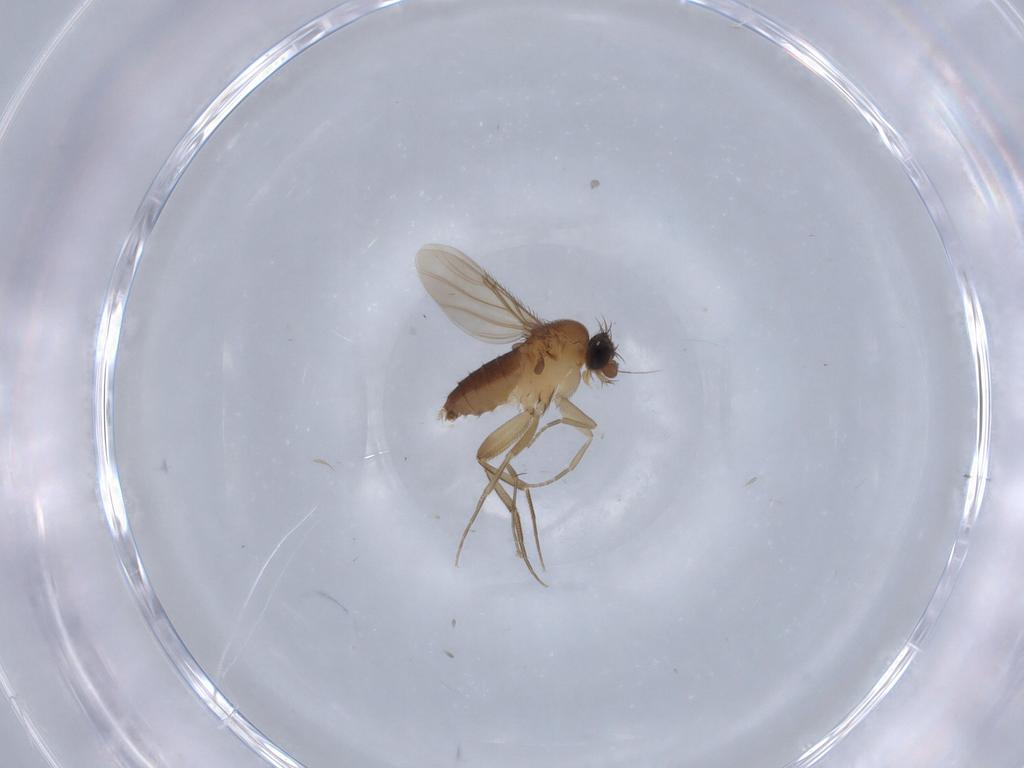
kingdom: Animalia
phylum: Arthropoda
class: Insecta
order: Diptera
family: Phoridae
